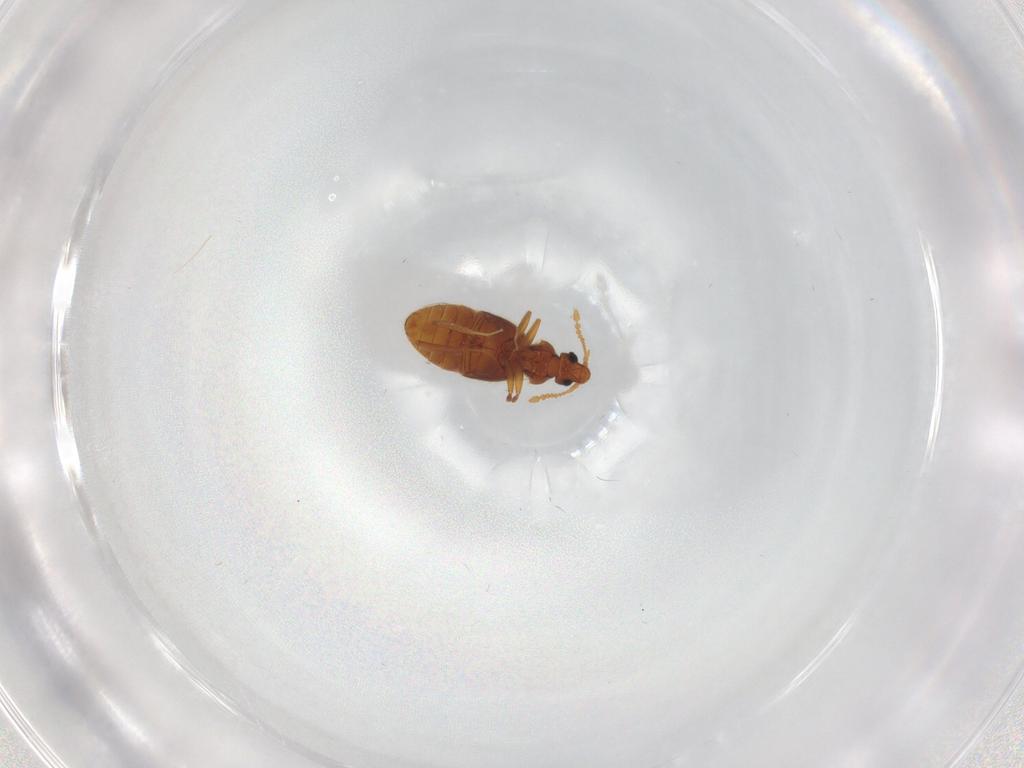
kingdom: Animalia
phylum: Arthropoda
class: Insecta
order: Coleoptera
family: Staphylinidae
